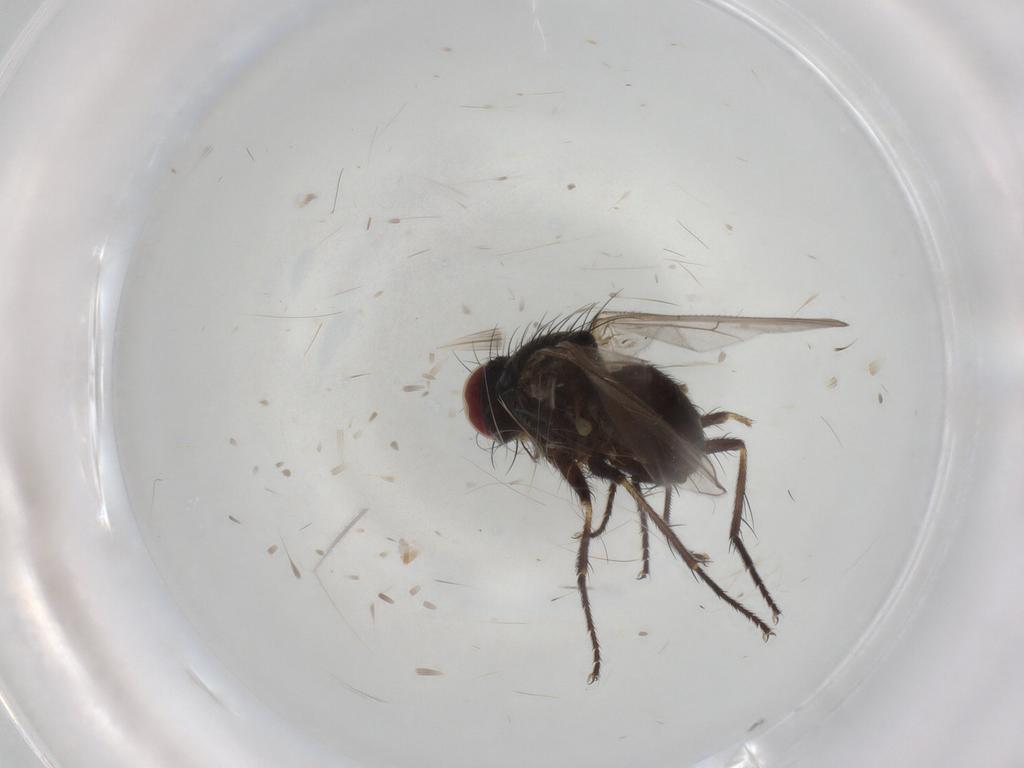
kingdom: Animalia
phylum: Arthropoda
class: Insecta
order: Diptera
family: Muscidae
